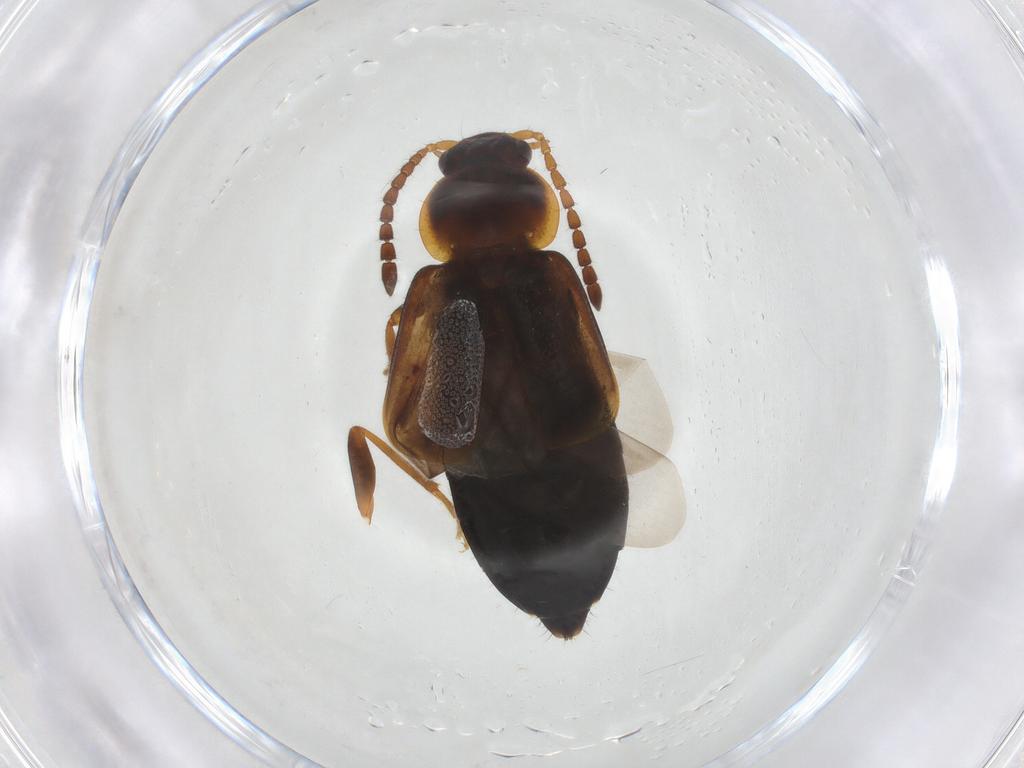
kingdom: Animalia
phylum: Arthropoda
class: Insecta
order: Coleoptera
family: Staphylinidae
